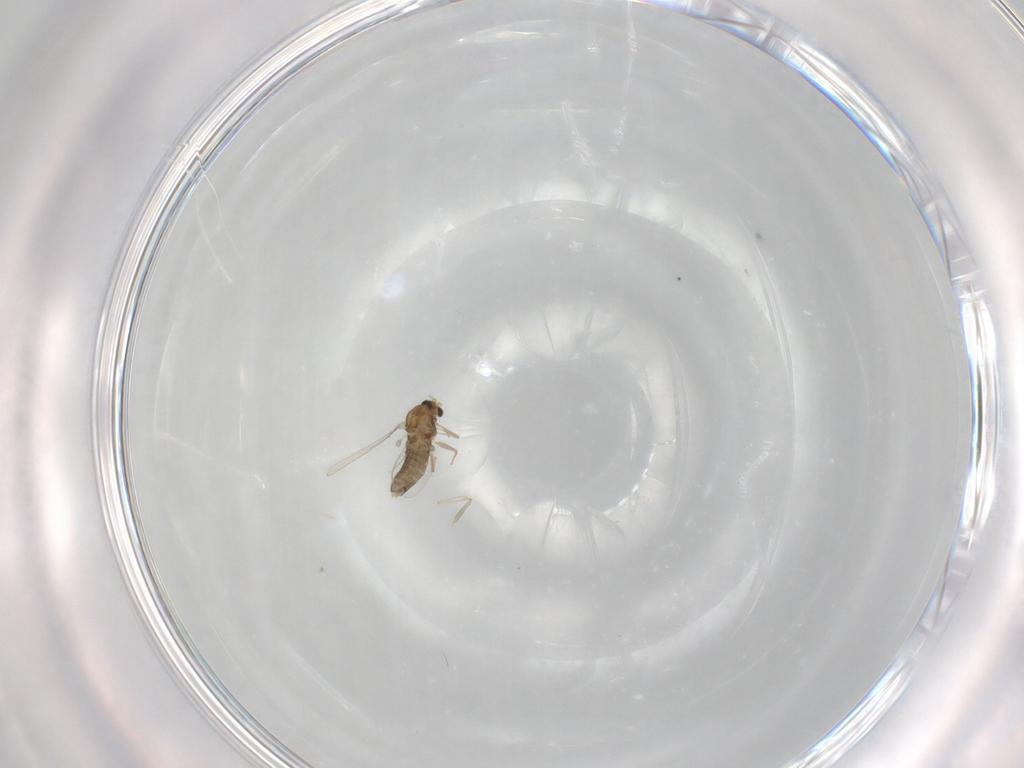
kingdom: Animalia
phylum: Arthropoda
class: Insecta
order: Diptera
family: Chironomidae
